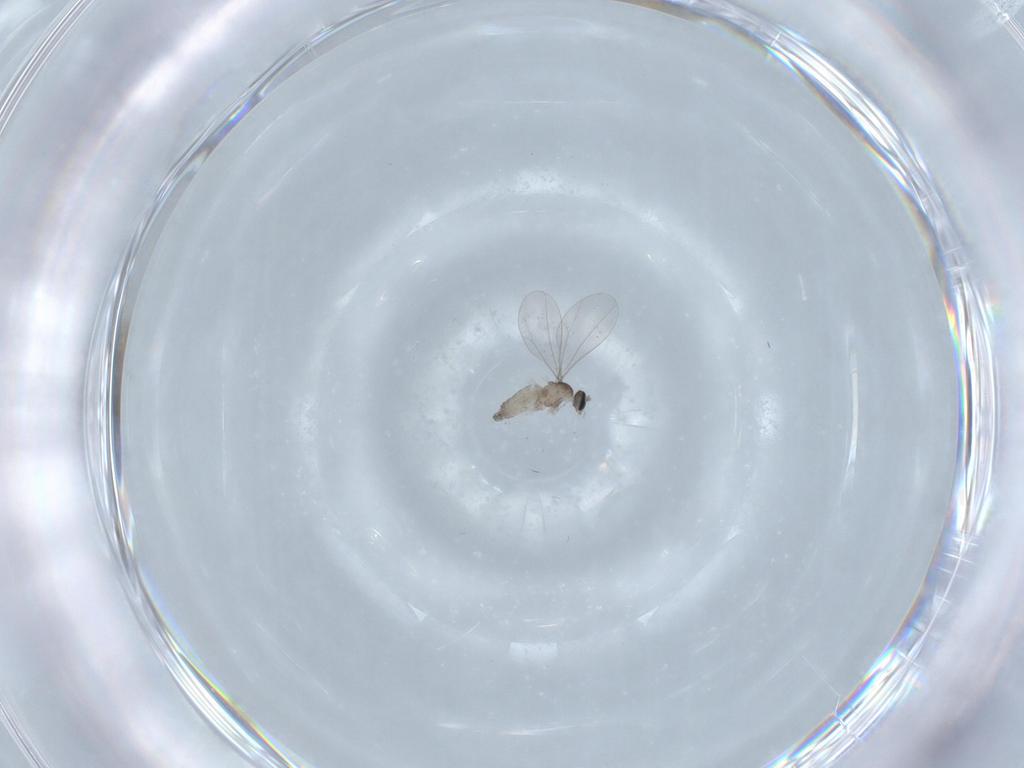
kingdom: Animalia
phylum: Arthropoda
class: Insecta
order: Diptera
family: Cecidomyiidae
